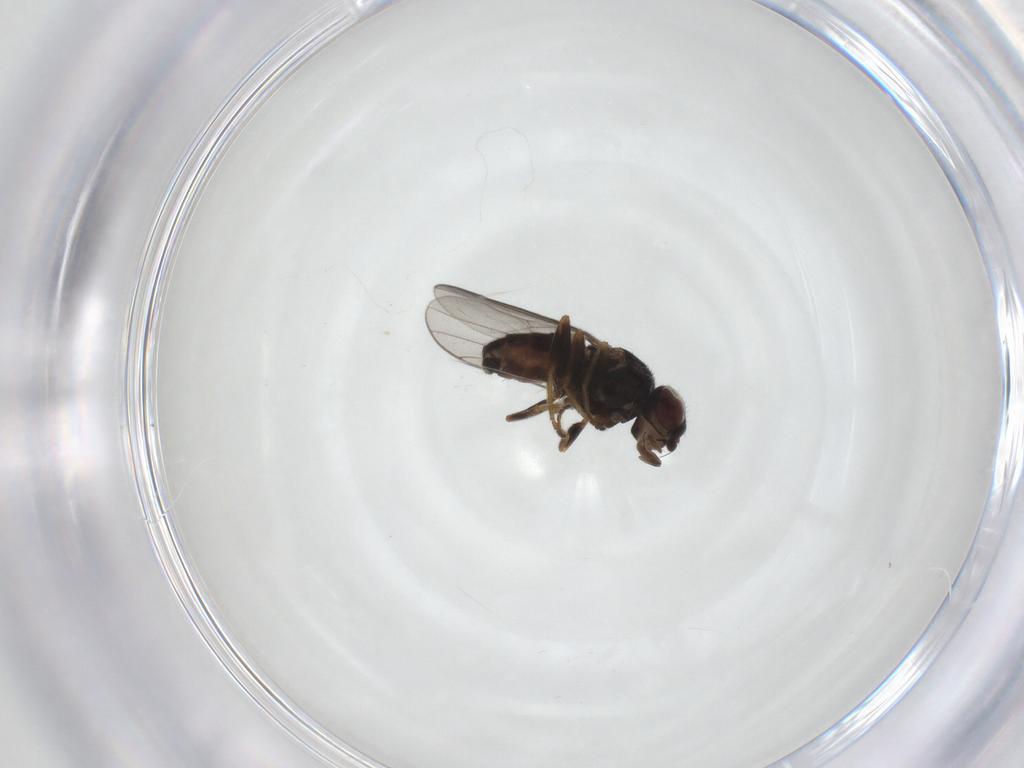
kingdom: Animalia
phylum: Arthropoda
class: Insecta
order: Diptera
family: Chloropidae
